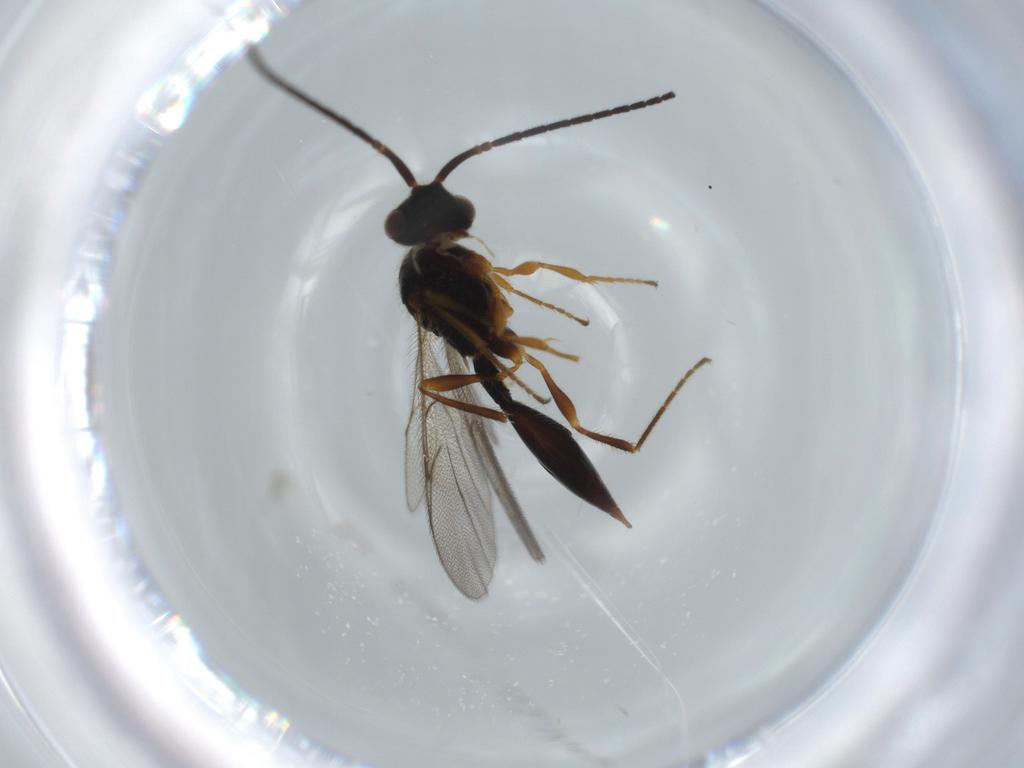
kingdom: Animalia
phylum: Arthropoda
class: Insecta
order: Hymenoptera
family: Diapriidae
